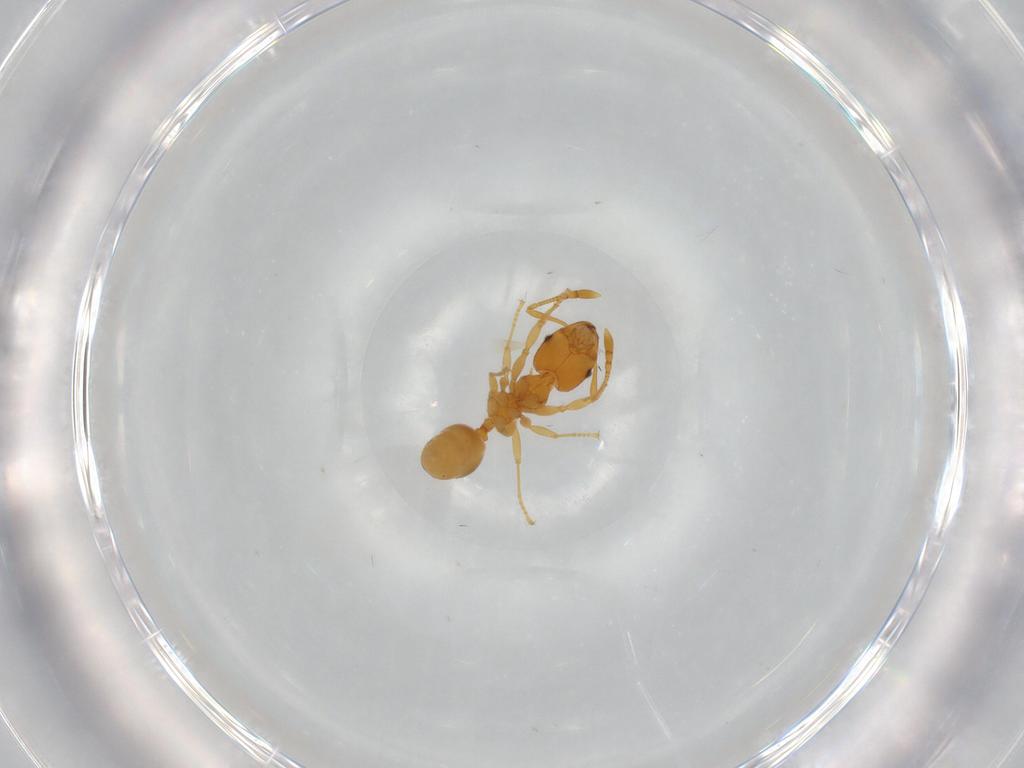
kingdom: Animalia
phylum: Arthropoda
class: Insecta
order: Hymenoptera
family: Formicidae
